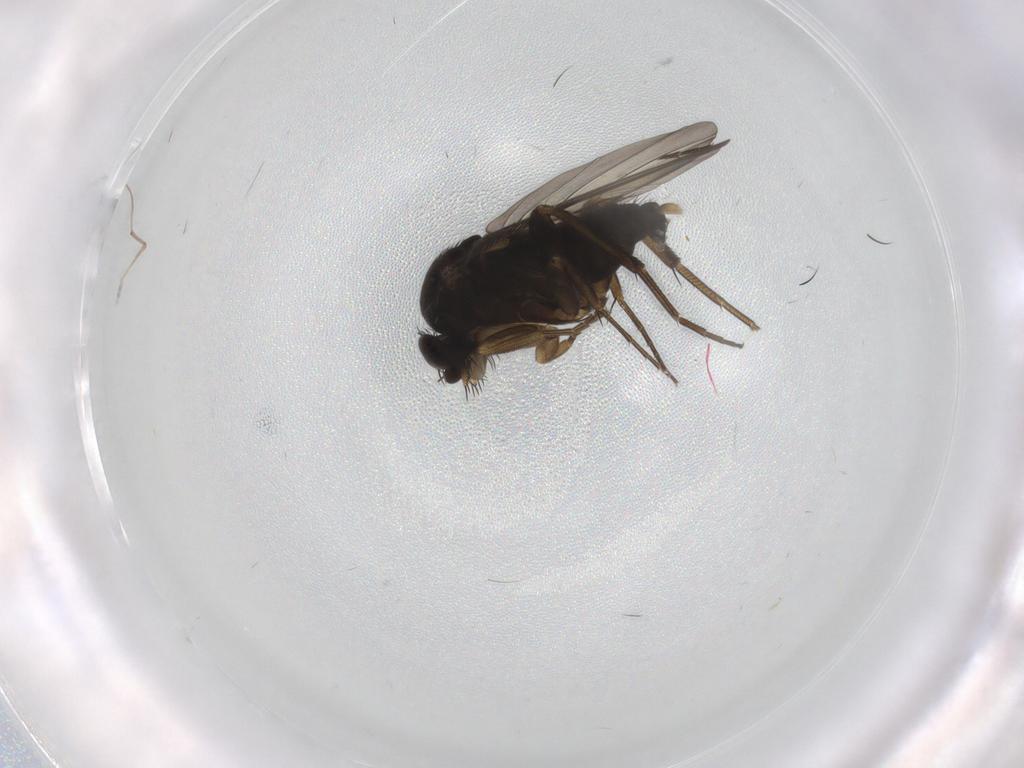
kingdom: Animalia
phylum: Arthropoda
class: Insecta
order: Diptera
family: Phoridae
